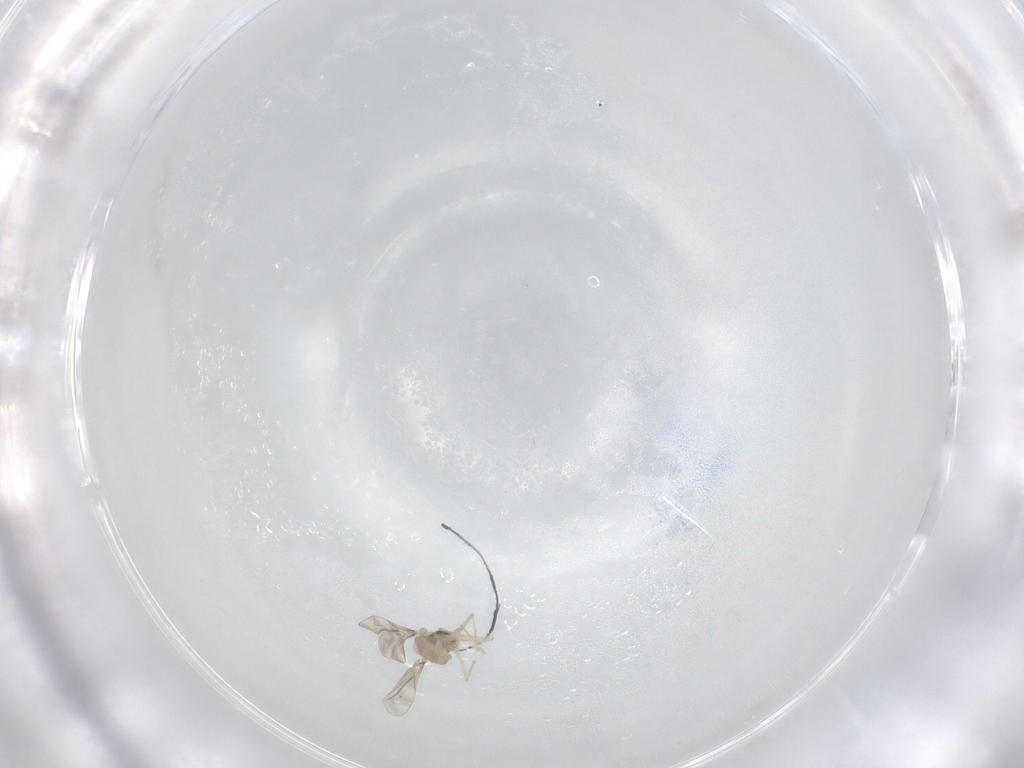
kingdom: Animalia
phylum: Arthropoda
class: Insecta
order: Diptera
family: Cecidomyiidae
